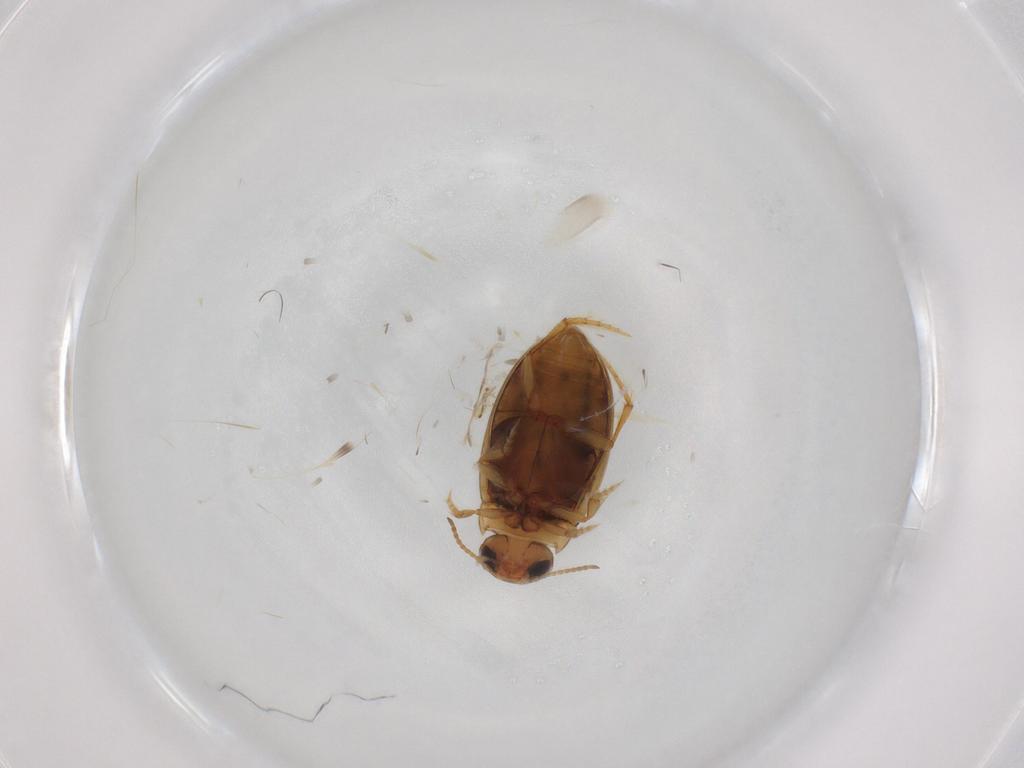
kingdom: Animalia
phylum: Arthropoda
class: Insecta
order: Coleoptera
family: Dytiscidae
